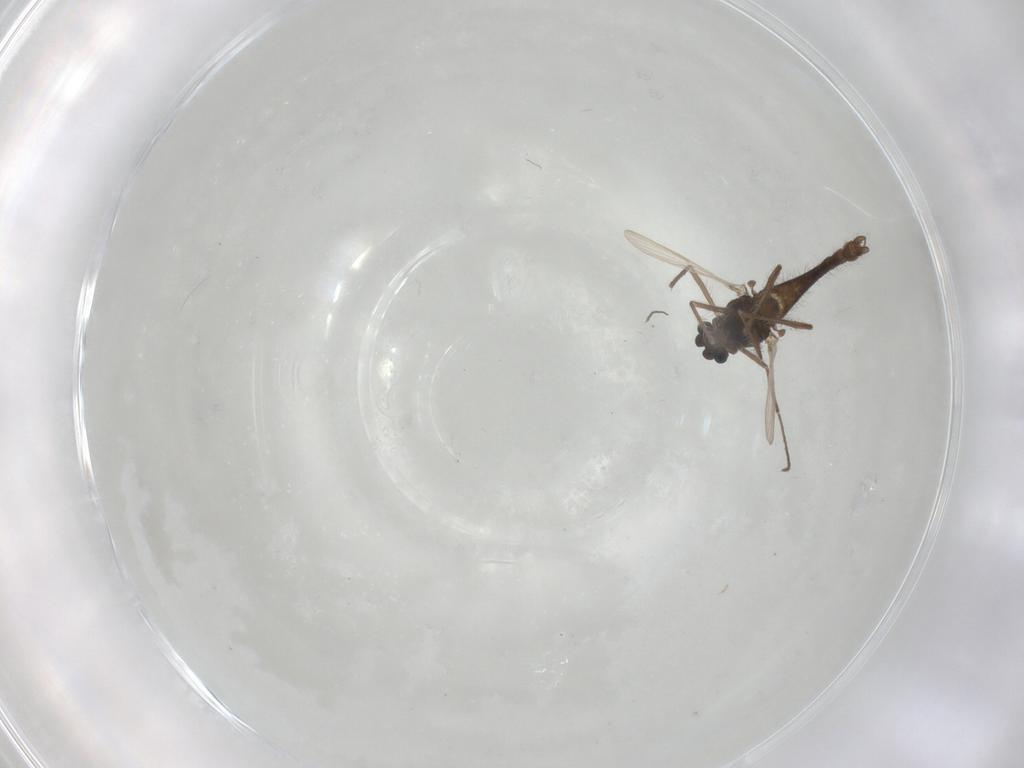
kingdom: Animalia
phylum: Arthropoda
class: Insecta
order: Diptera
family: Chironomidae
